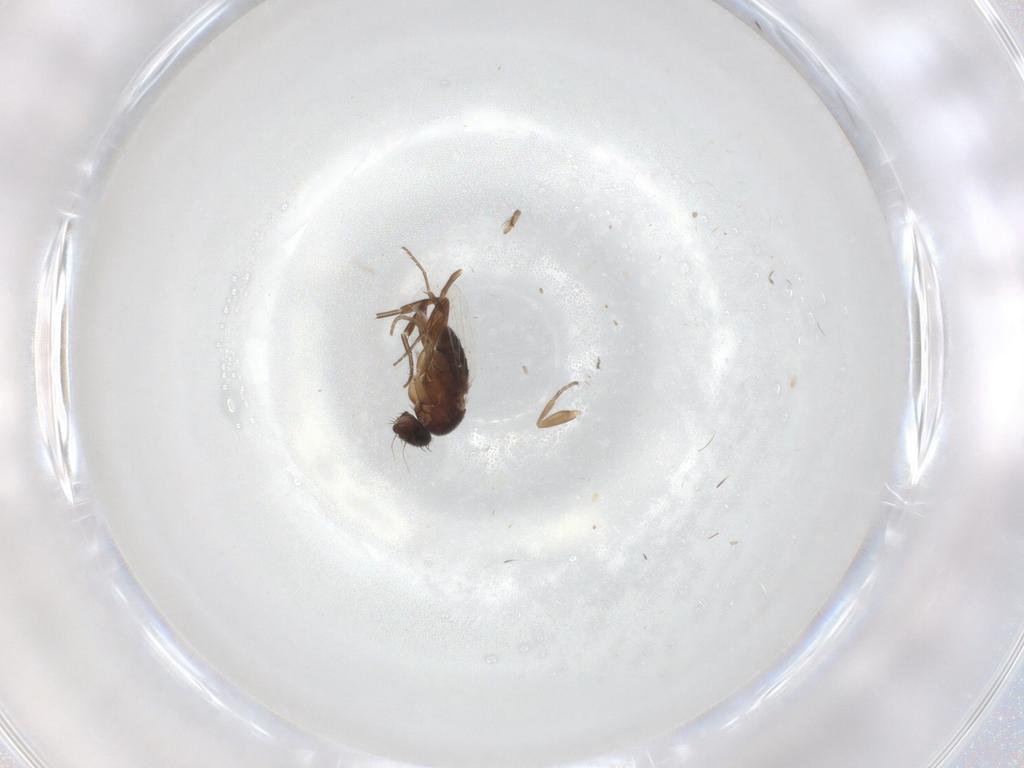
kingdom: Animalia
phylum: Arthropoda
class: Insecta
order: Diptera
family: Phoridae
